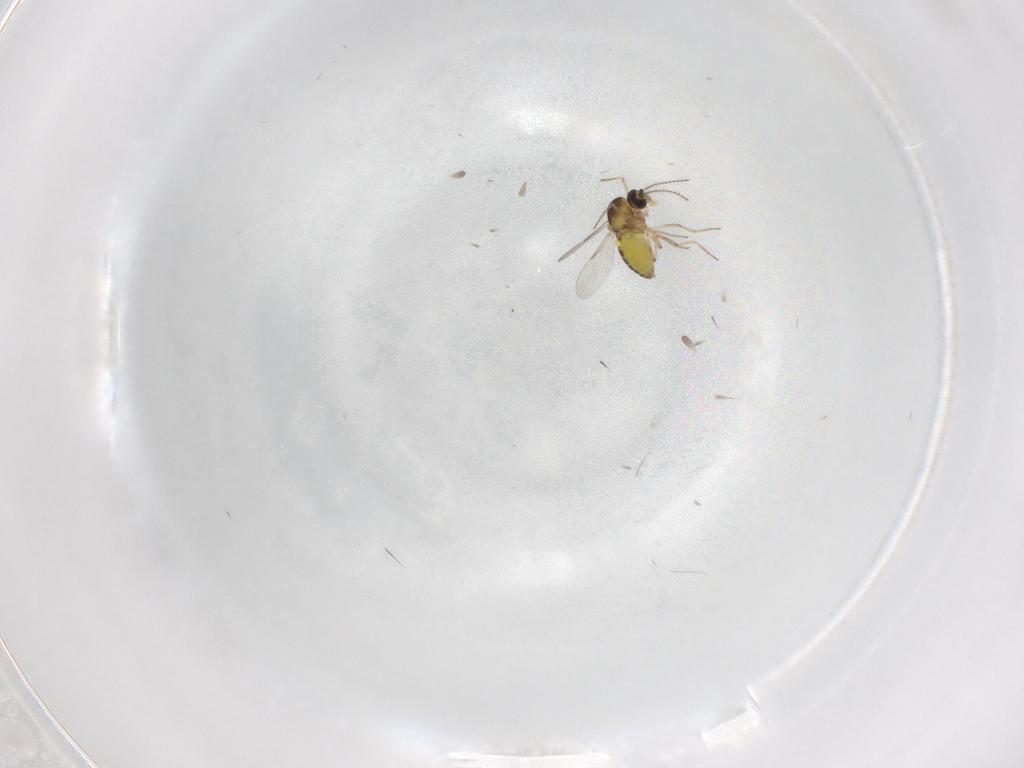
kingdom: Animalia
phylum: Arthropoda
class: Insecta
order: Diptera
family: Ceratopogonidae
